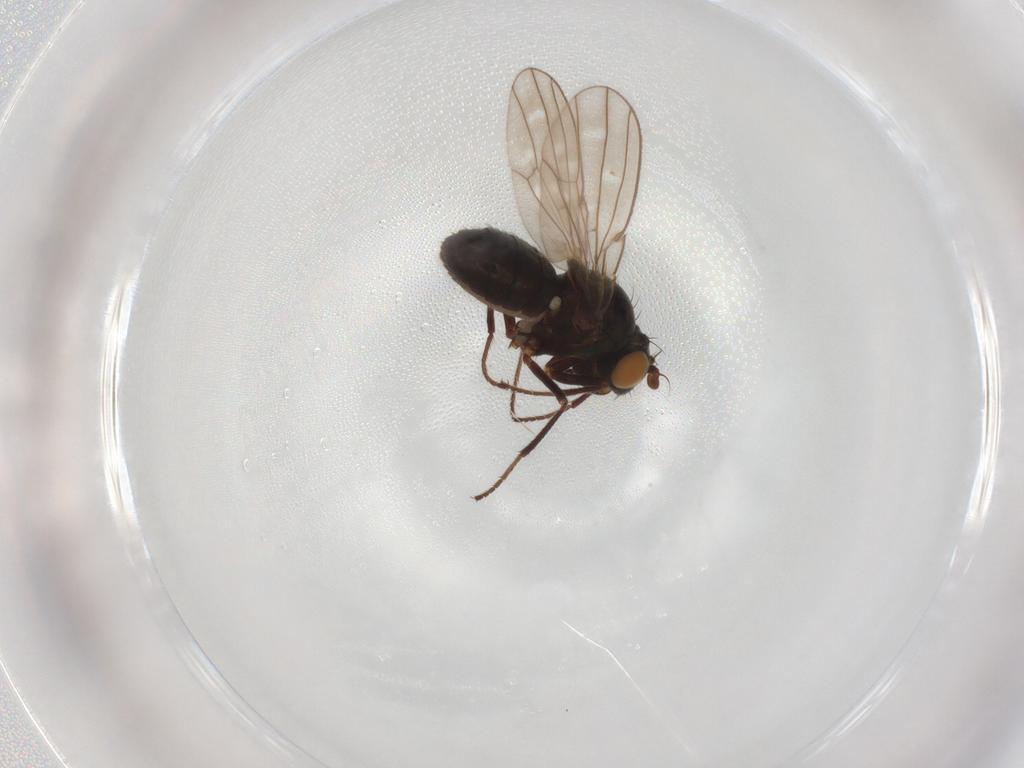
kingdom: Animalia
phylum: Arthropoda
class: Insecta
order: Diptera
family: Ephydridae
